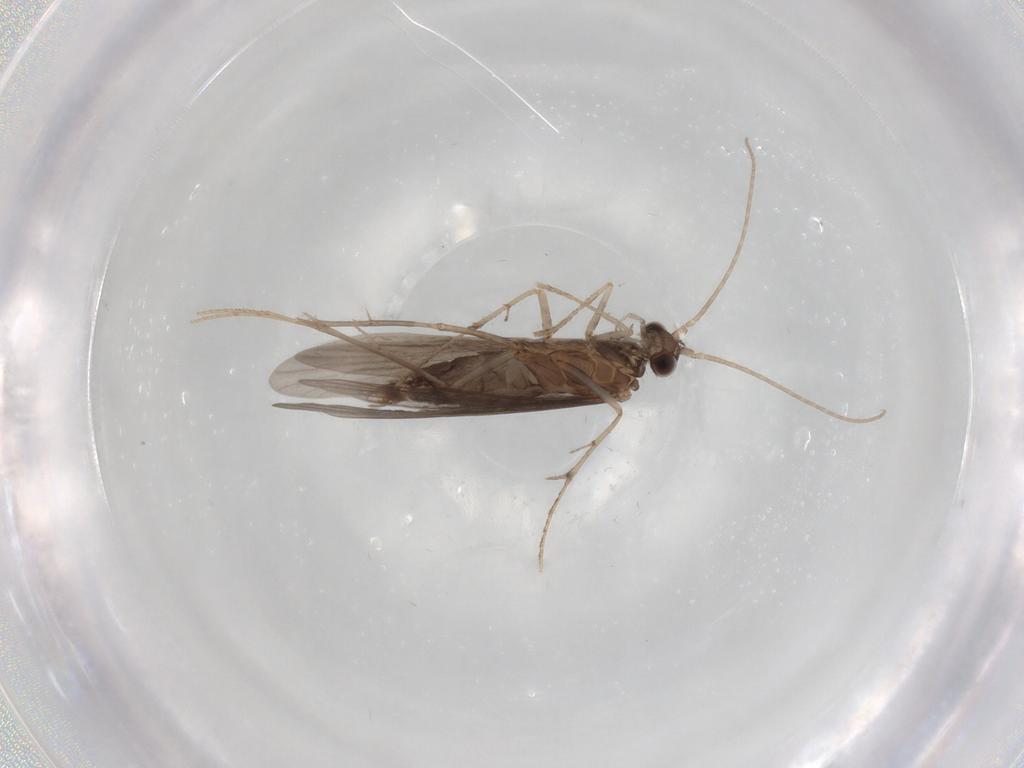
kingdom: Animalia
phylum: Arthropoda
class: Insecta
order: Trichoptera
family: Xiphocentronidae
